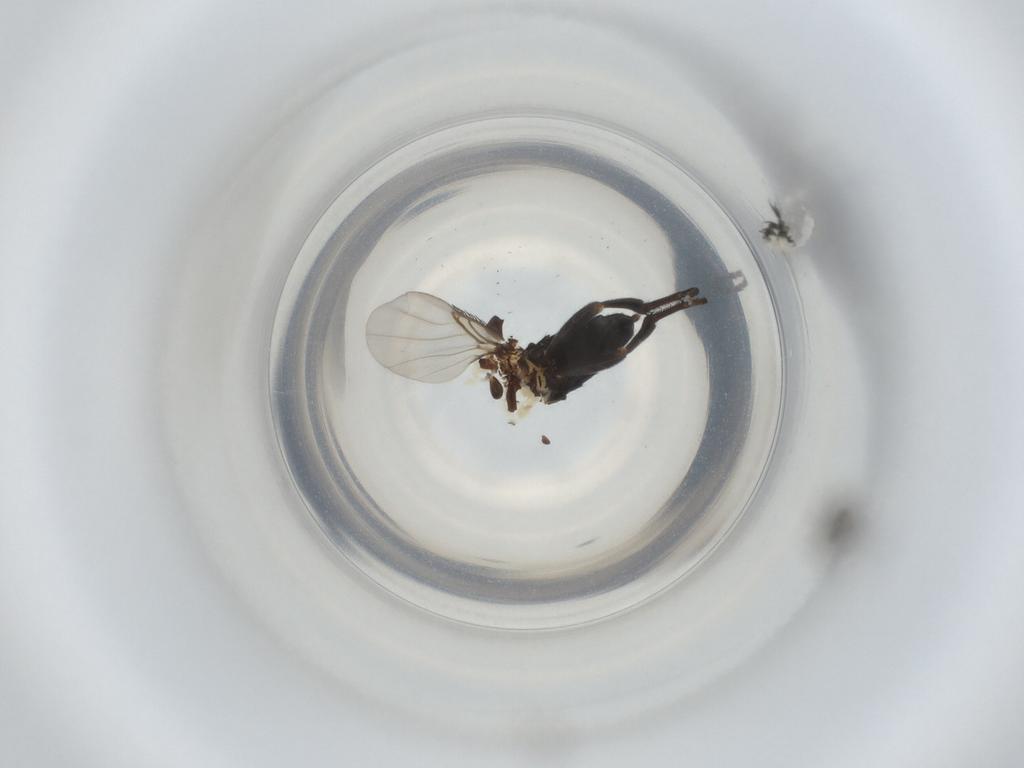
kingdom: Animalia
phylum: Arthropoda
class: Insecta
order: Diptera
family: Phoridae
